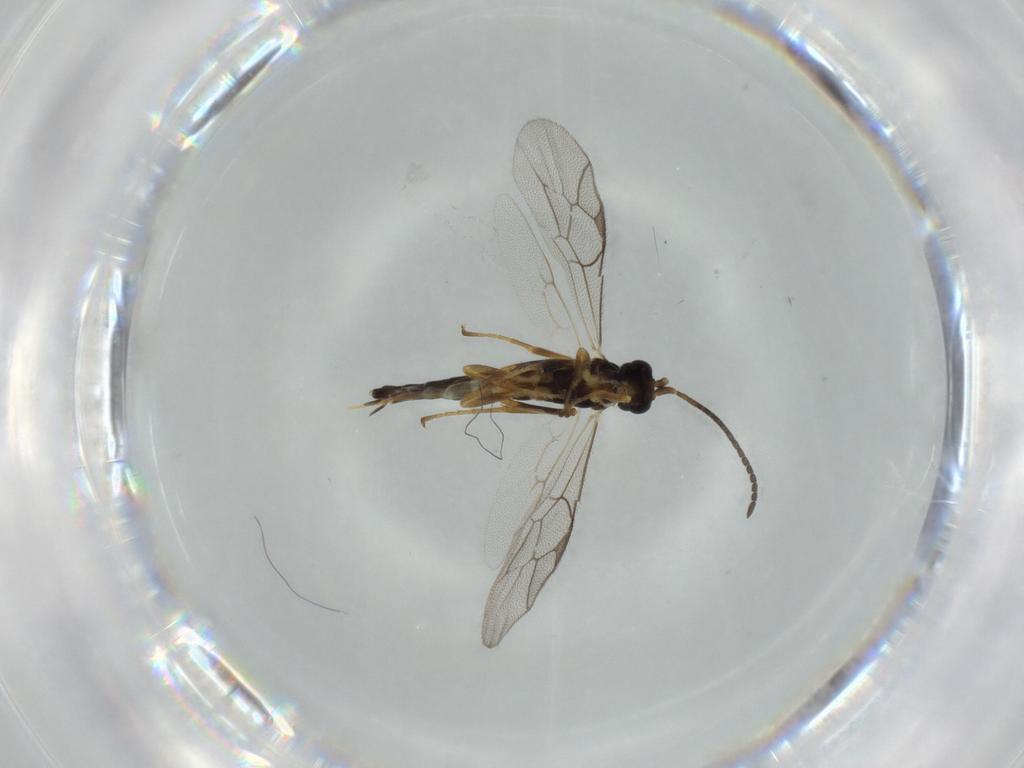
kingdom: Animalia
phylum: Arthropoda
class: Insecta
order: Hymenoptera
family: Ichneumonidae
